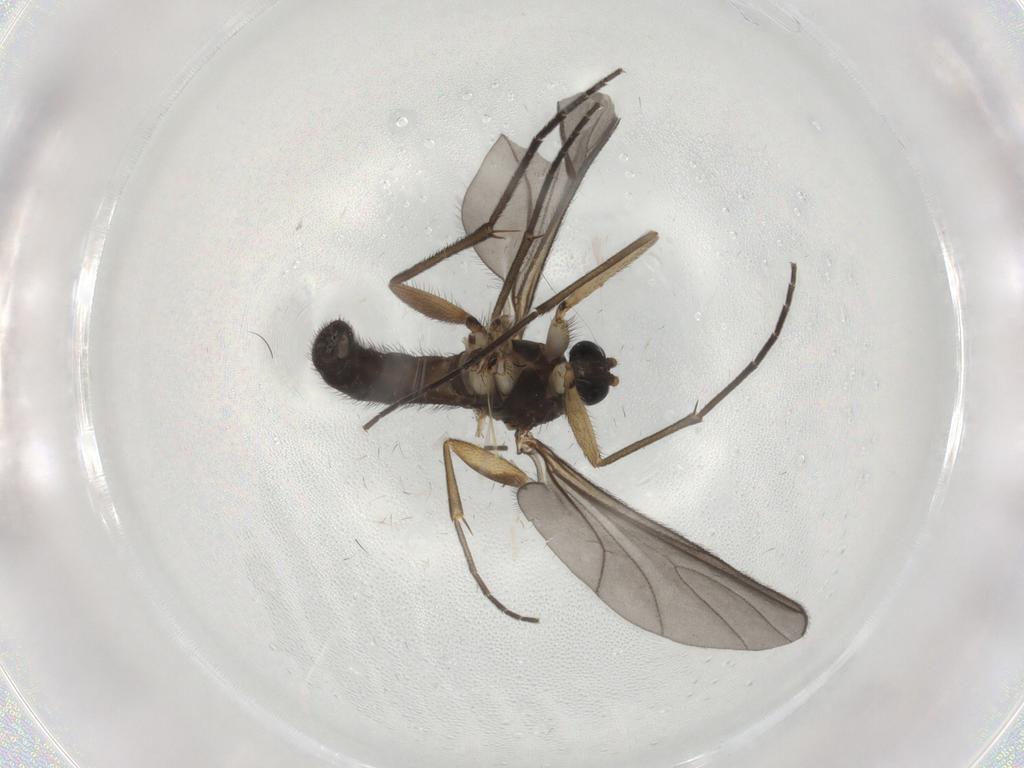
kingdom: Animalia
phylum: Arthropoda
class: Insecta
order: Diptera
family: Sciaridae
